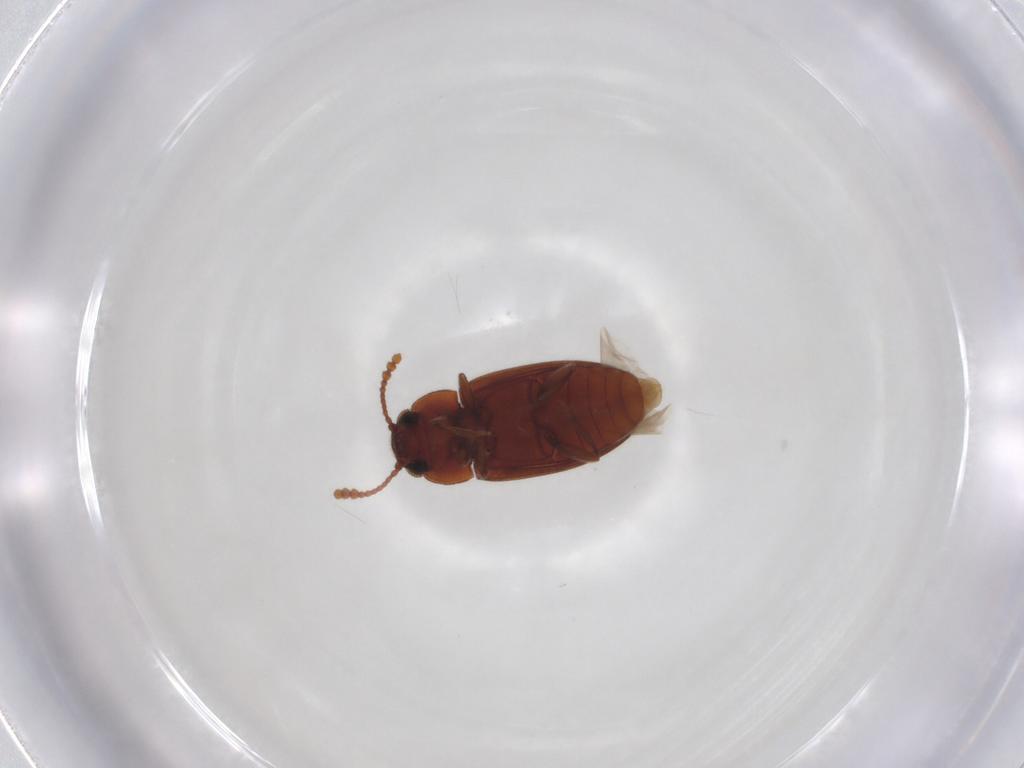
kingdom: Animalia
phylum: Arthropoda
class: Insecta
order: Coleoptera
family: Erotylidae
